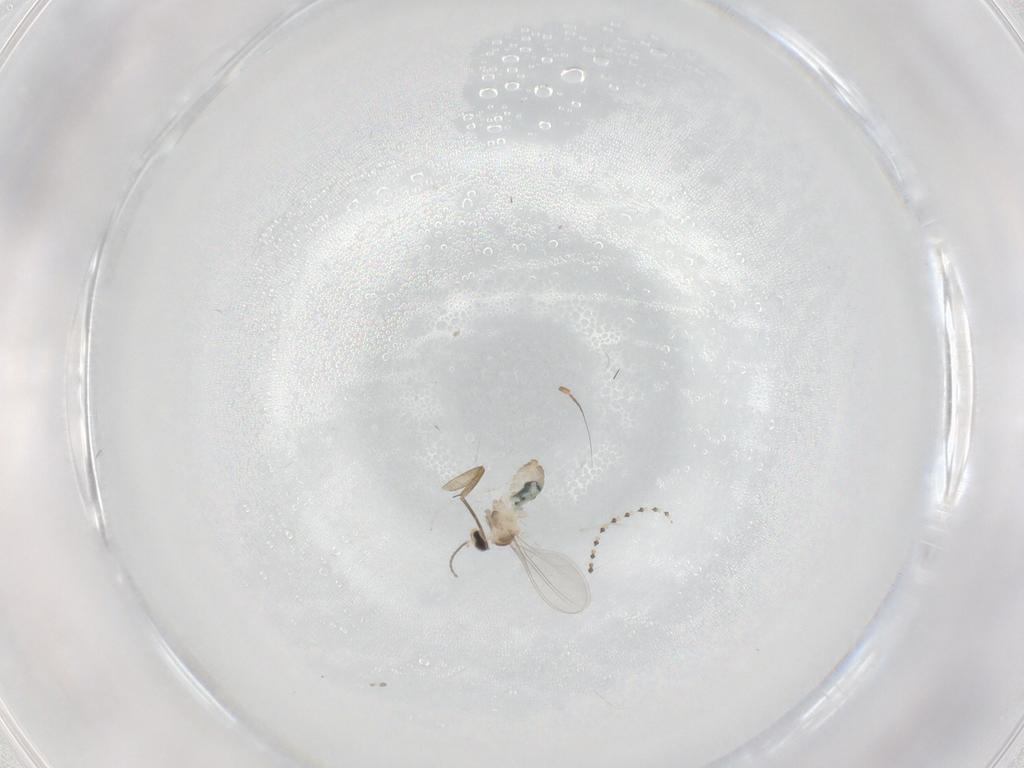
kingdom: Animalia
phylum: Arthropoda
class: Insecta
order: Diptera
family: Cecidomyiidae
